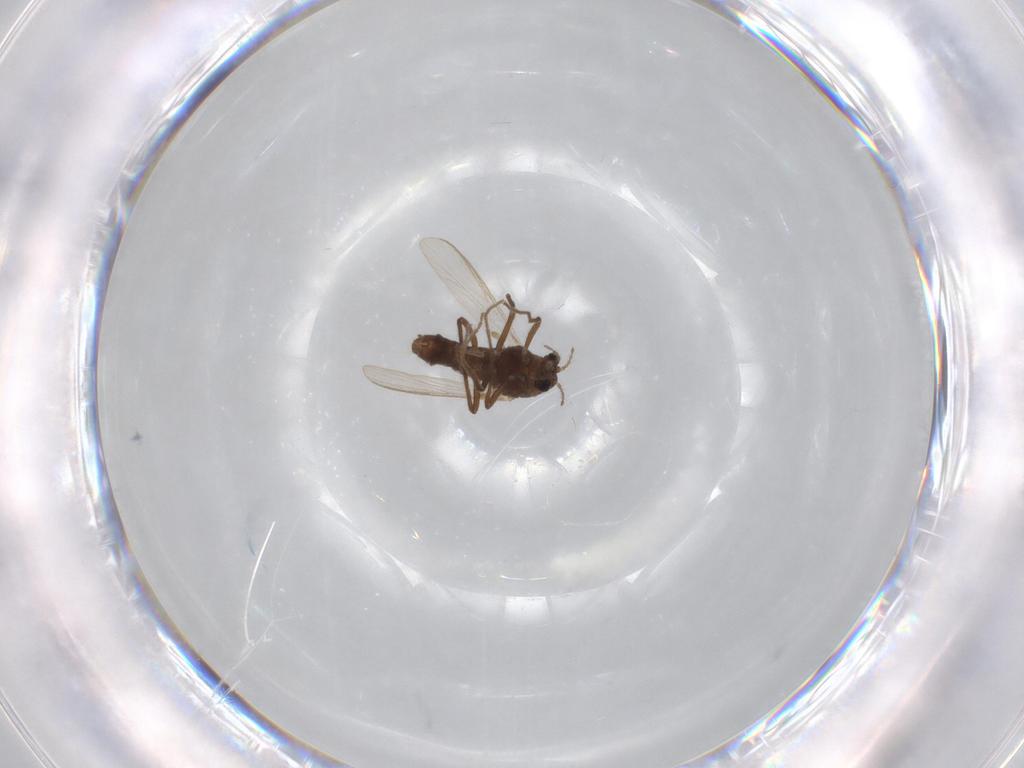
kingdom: Animalia
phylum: Arthropoda
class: Insecta
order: Diptera
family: Chironomidae
